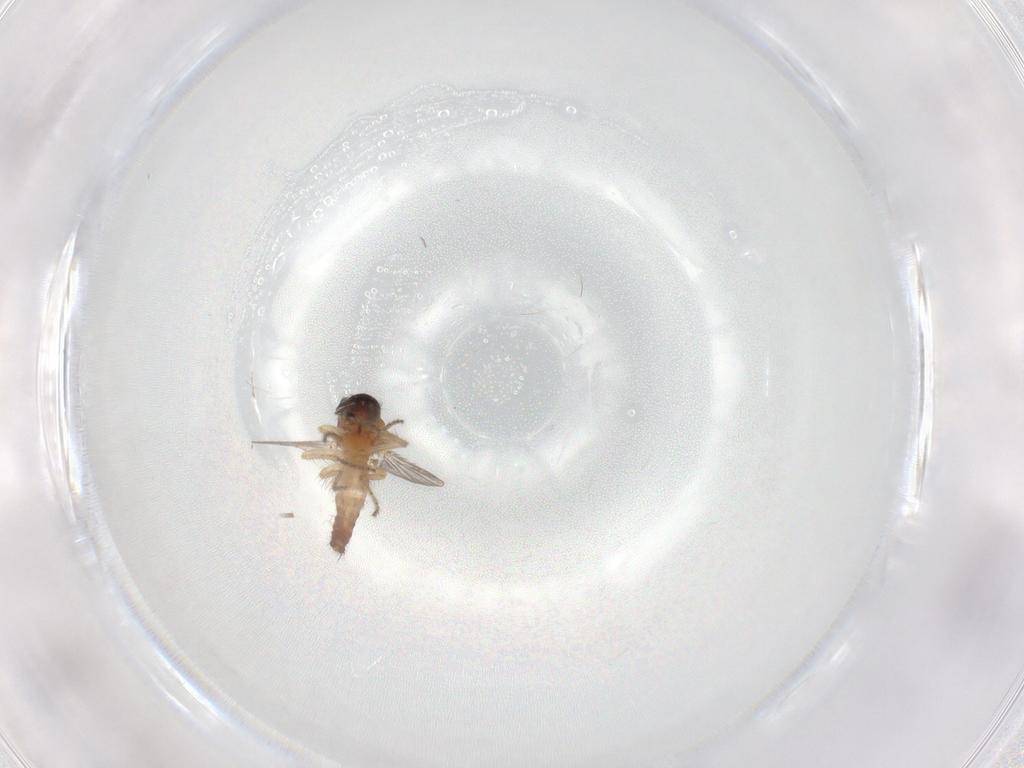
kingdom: Animalia
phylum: Arthropoda
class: Insecta
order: Diptera
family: Ceratopogonidae
